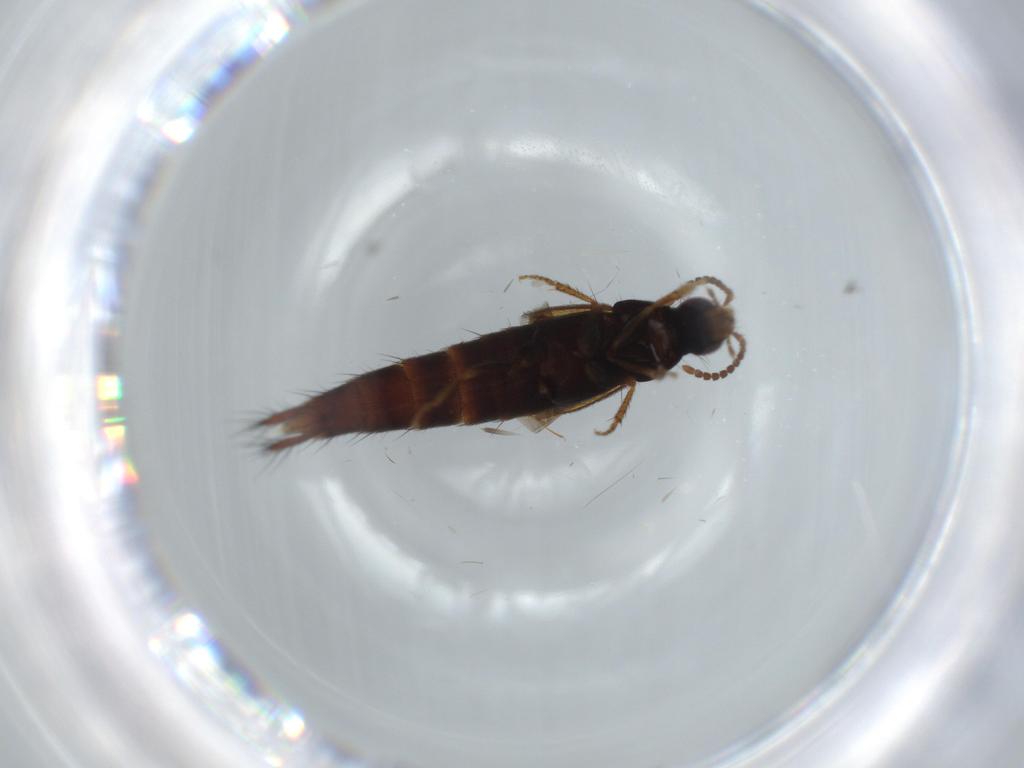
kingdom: Animalia
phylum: Arthropoda
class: Insecta
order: Coleoptera
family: Staphylinidae
